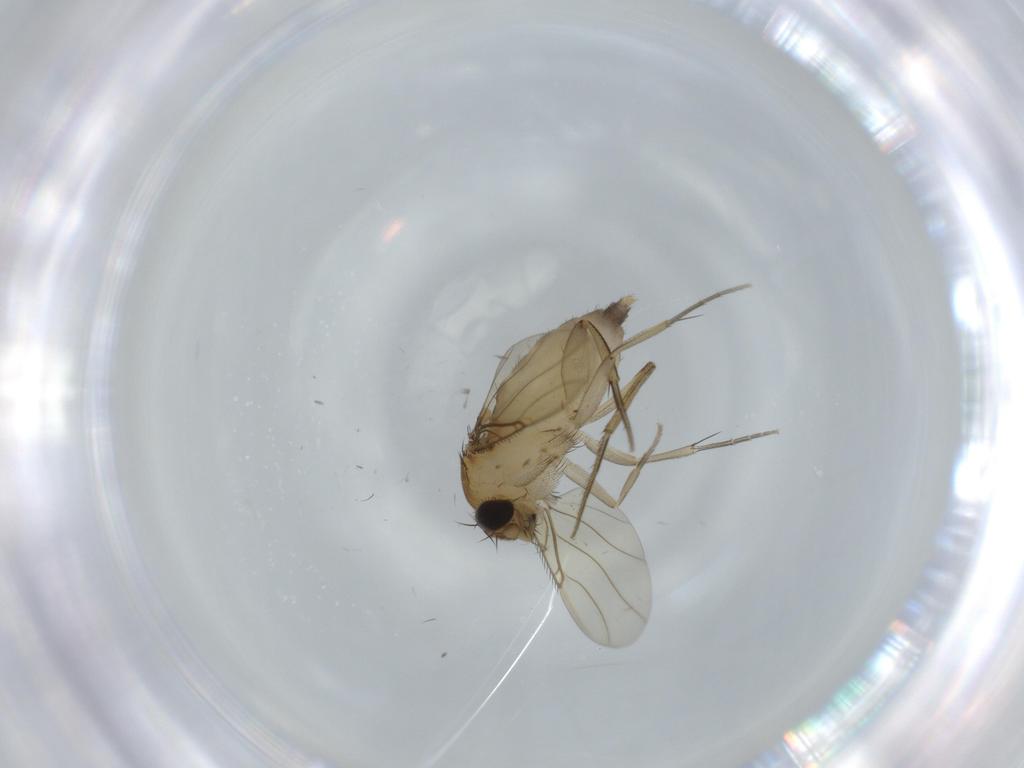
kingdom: Animalia
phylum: Arthropoda
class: Insecta
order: Diptera
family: Phoridae
